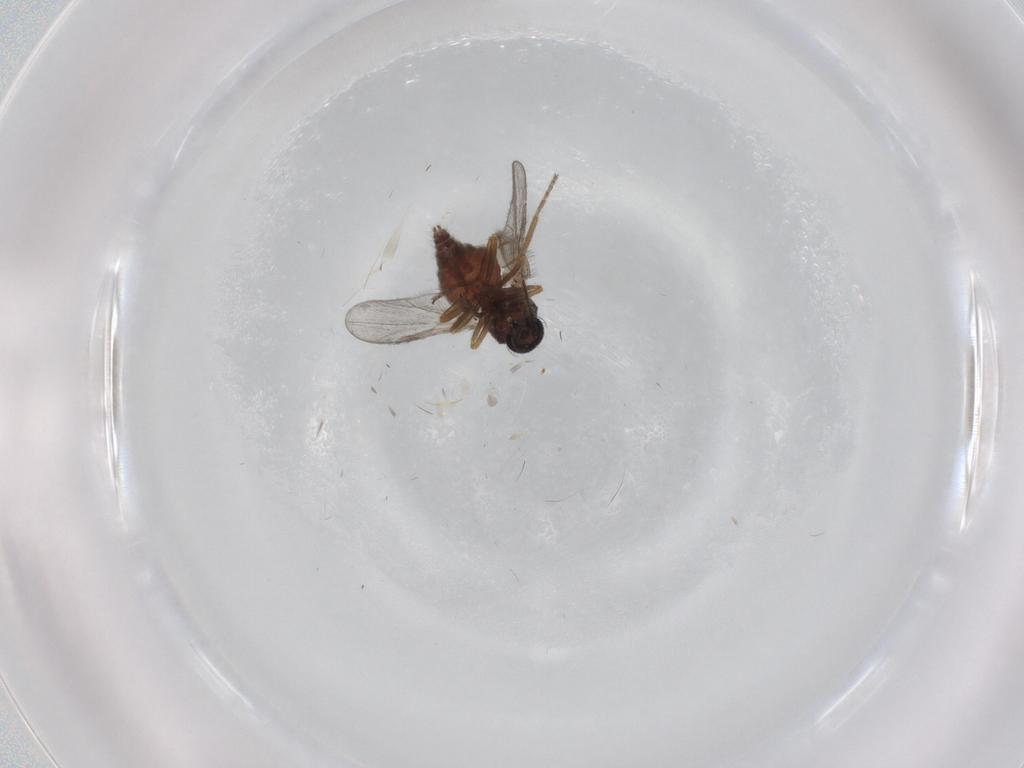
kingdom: Animalia
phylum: Arthropoda
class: Insecta
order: Diptera
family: Ceratopogonidae
